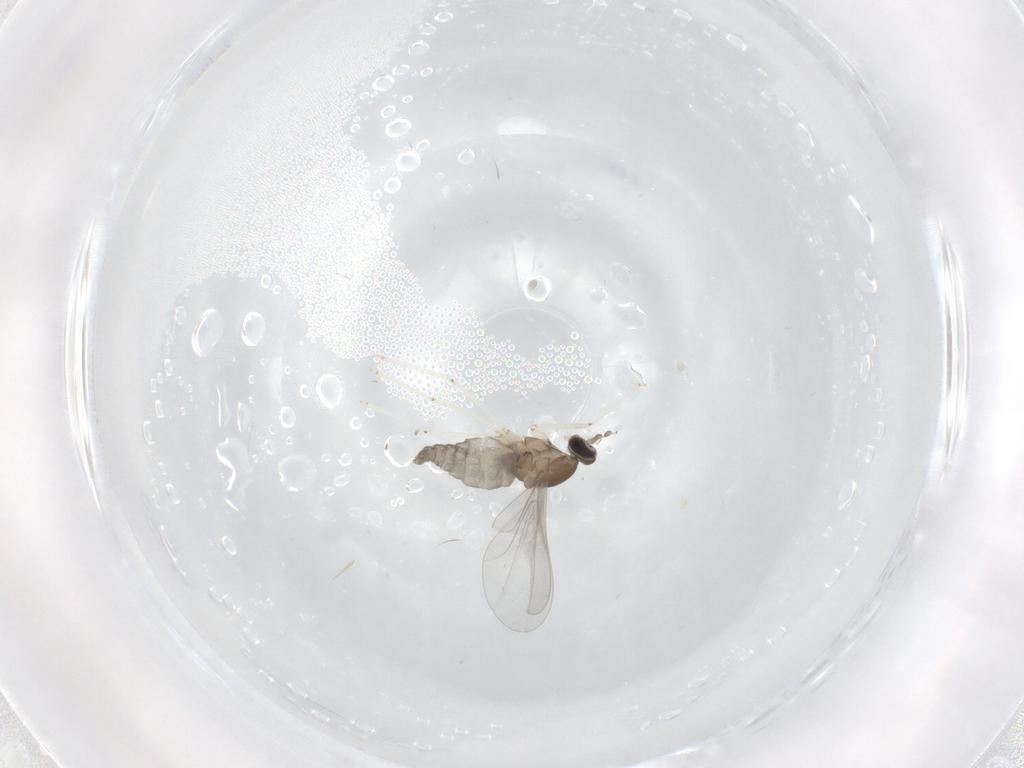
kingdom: Animalia
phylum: Arthropoda
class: Insecta
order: Diptera
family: Cecidomyiidae
